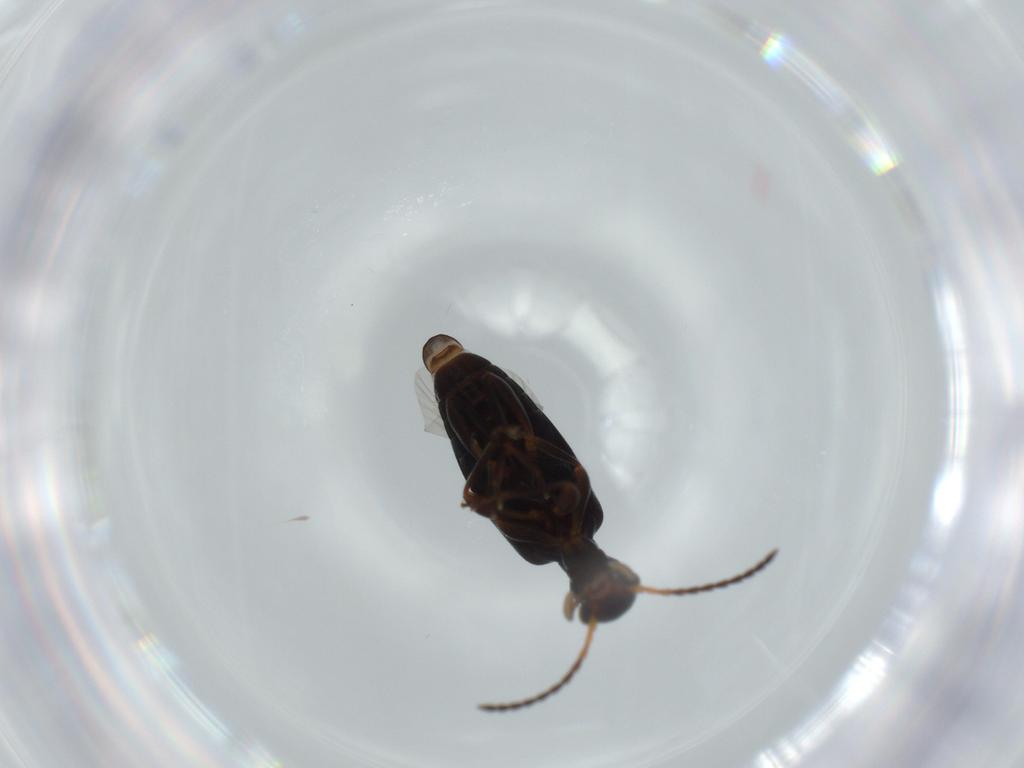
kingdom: Animalia
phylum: Arthropoda
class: Insecta
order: Coleoptera
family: Anthicidae
